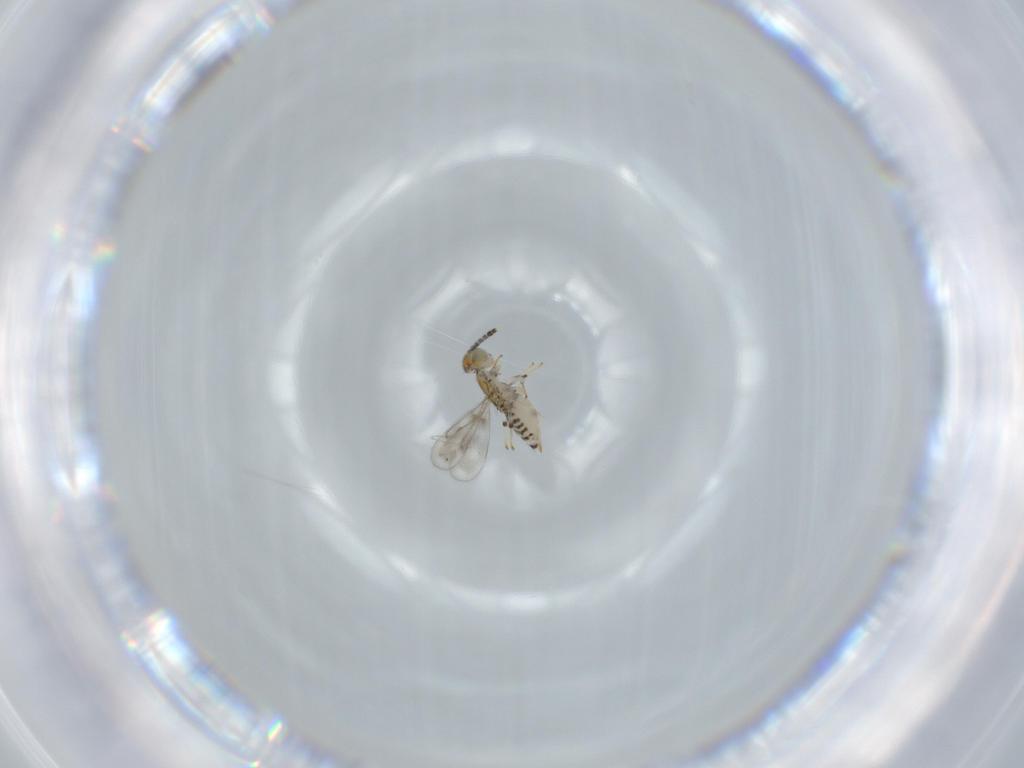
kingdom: Animalia
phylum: Arthropoda
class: Insecta
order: Hymenoptera
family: Aphelinidae
